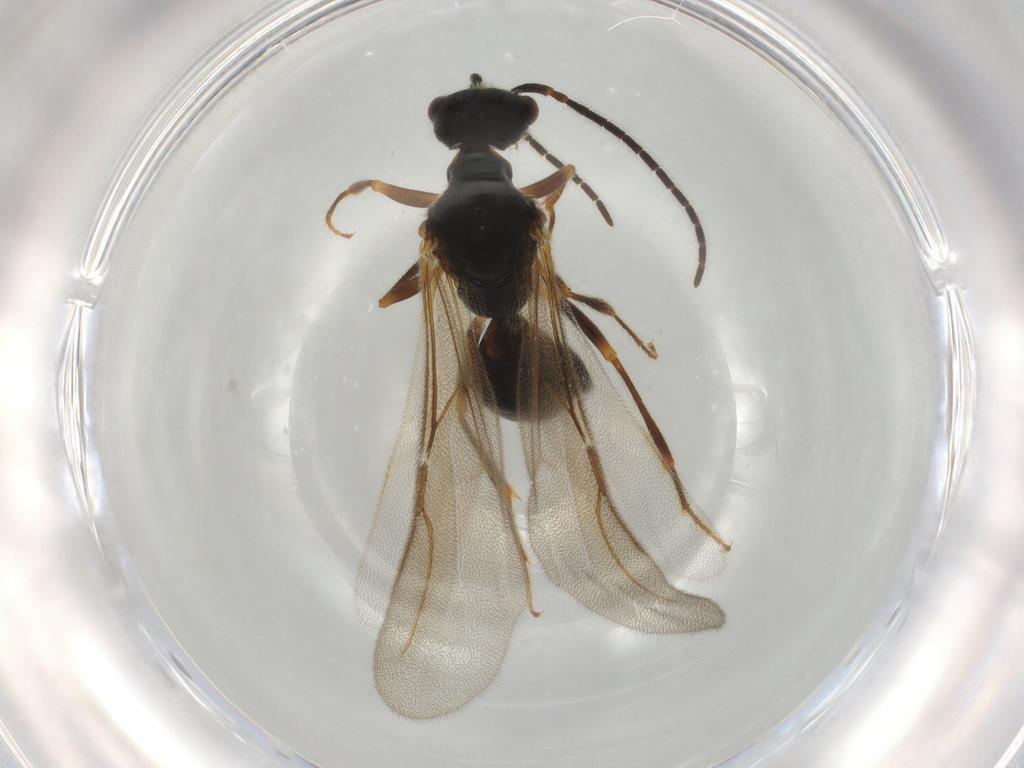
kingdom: Animalia
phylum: Arthropoda
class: Insecta
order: Hymenoptera
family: Bethylidae
